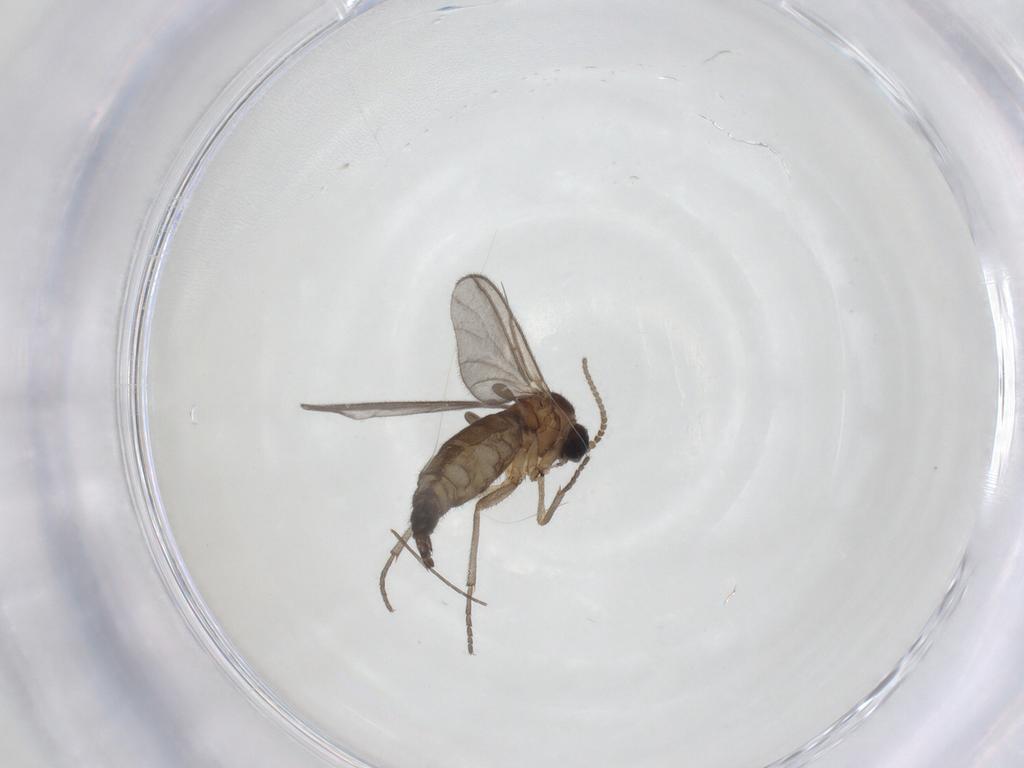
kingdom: Animalia
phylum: Arthropoda
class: Insecta
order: Diptera
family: Sciaridae
